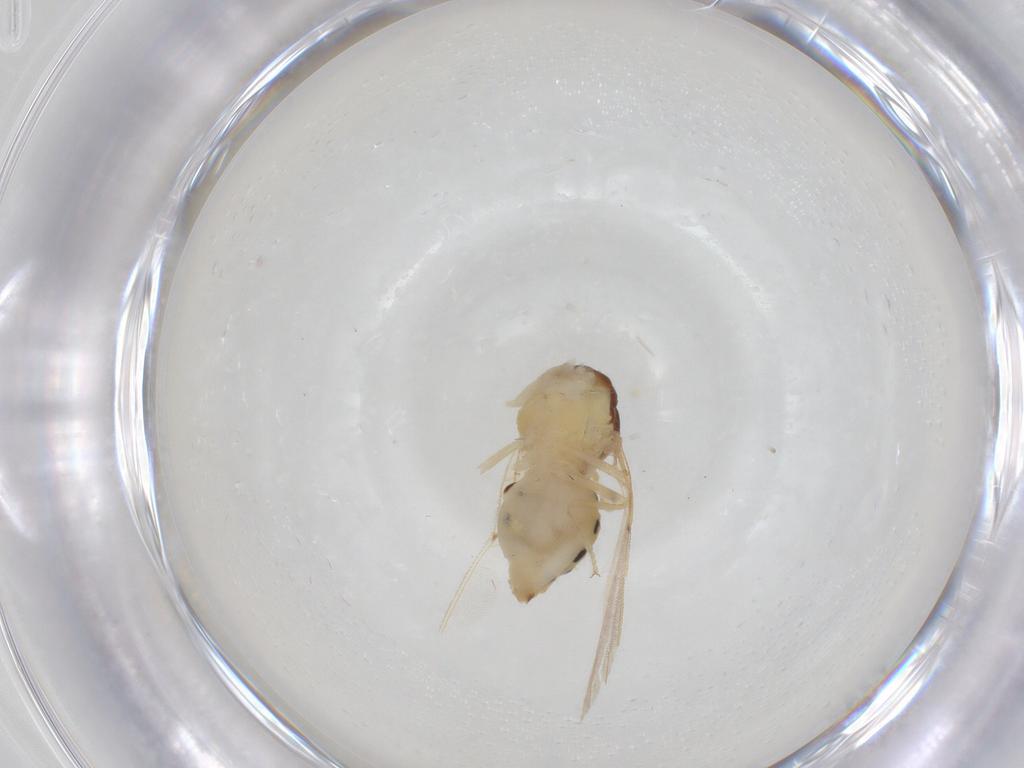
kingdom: Animalia
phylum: Arthropoda
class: Insecta
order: Diptera
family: Asteiidae
